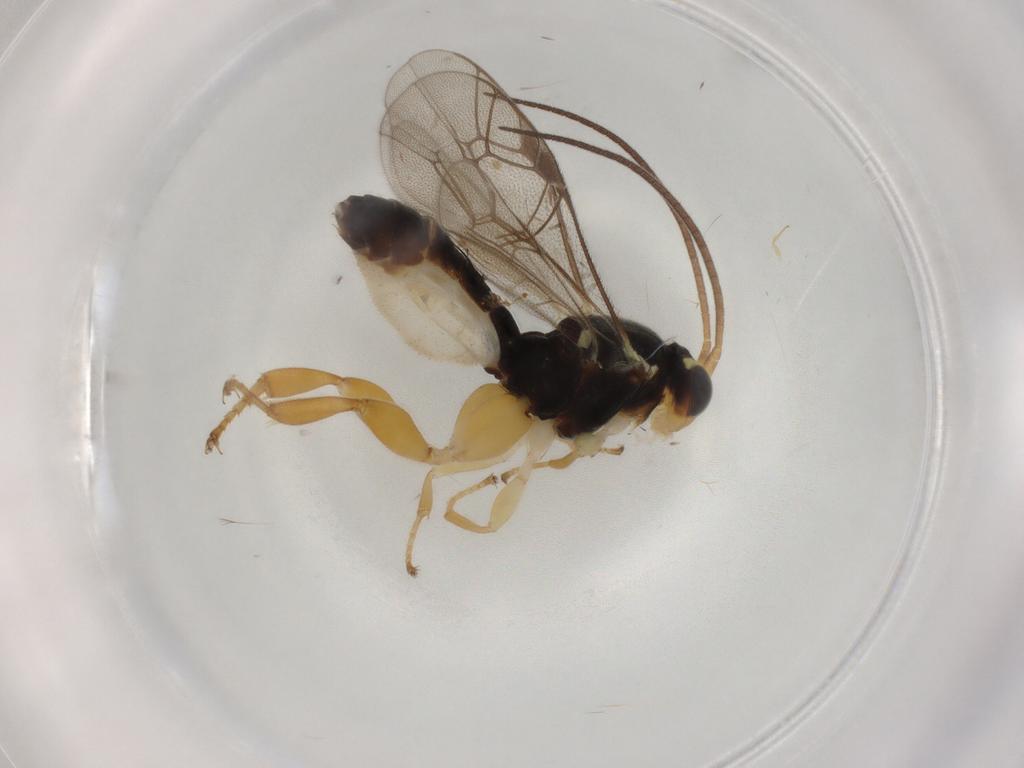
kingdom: Animalia
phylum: Arthropoda
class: Insecta
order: Hymenoptera
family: Ichneumonidae
